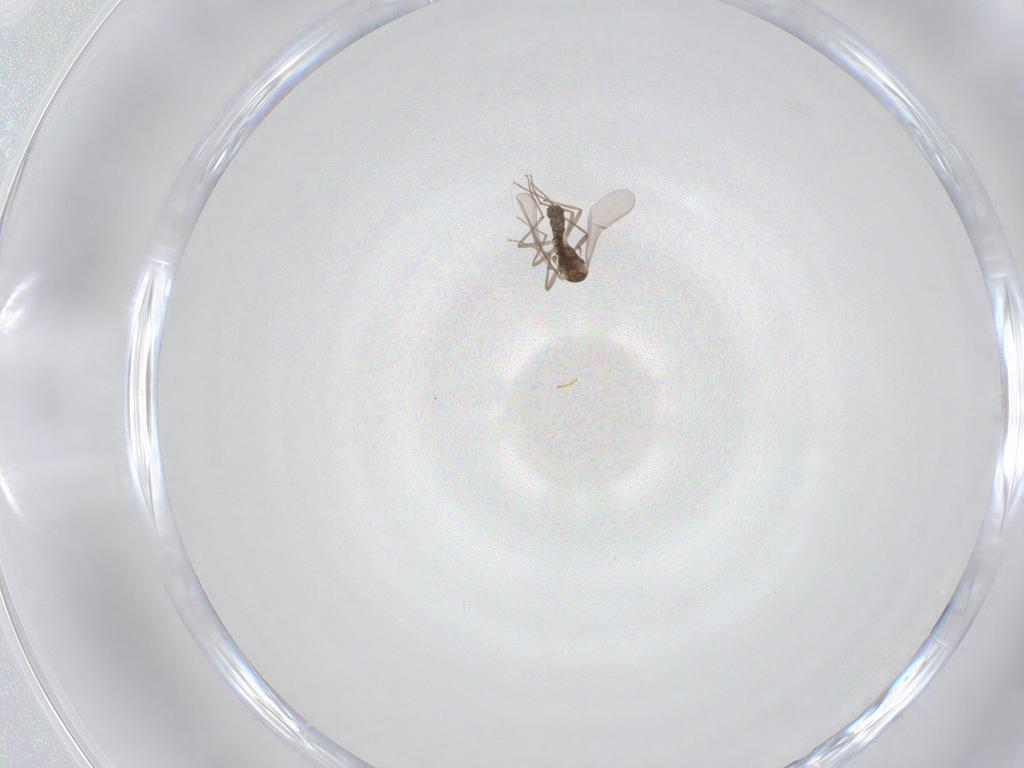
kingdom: Animalia
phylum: Arthropoda
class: Insecta
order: Diptera
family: Chironomidae
